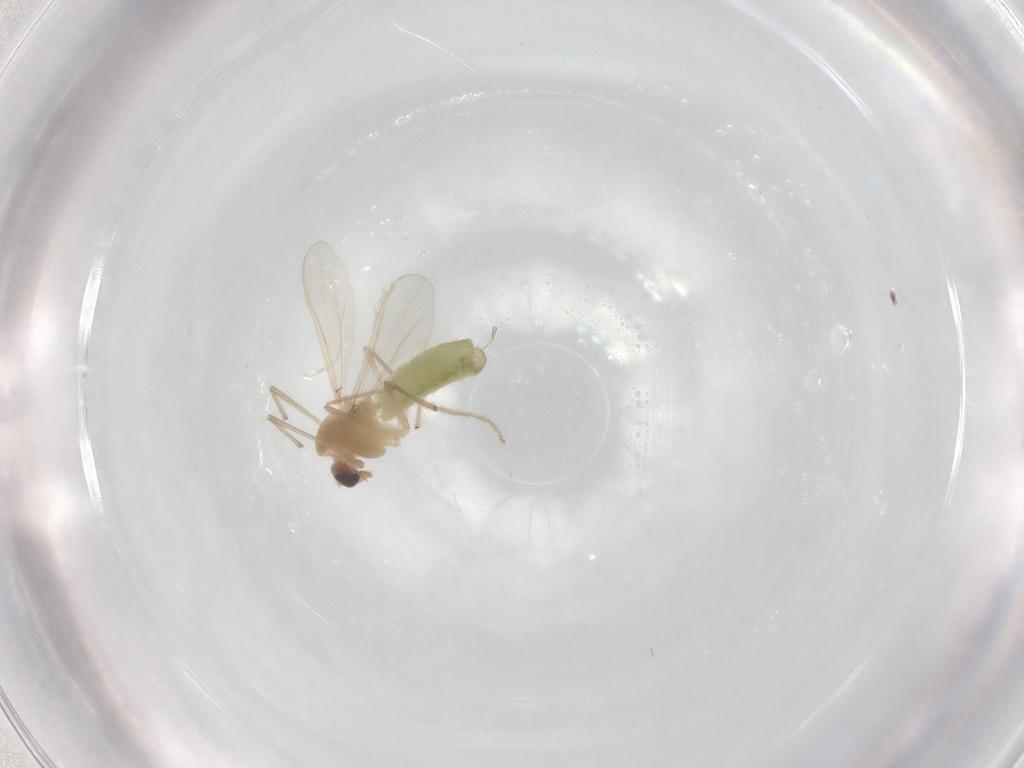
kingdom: Animalia
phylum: Arthropoda
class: Insecta
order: Diptera
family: Chironomidae
